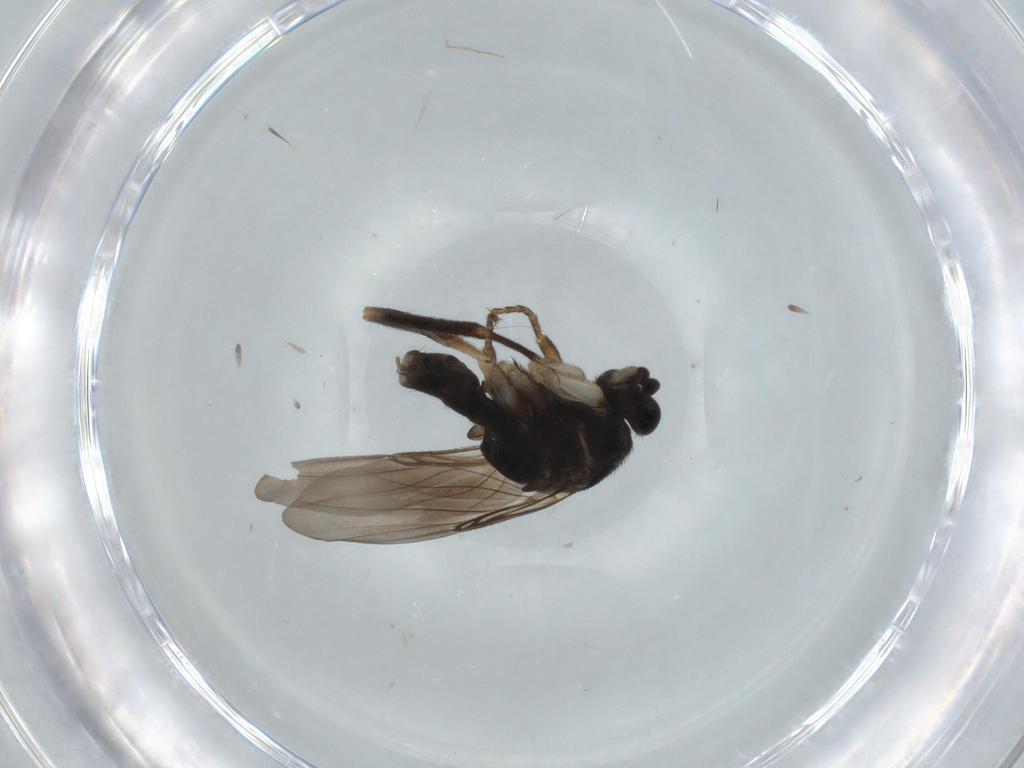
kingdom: Animalia
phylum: Arthropoda
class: Insecta
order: Diptera
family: Phoridae
